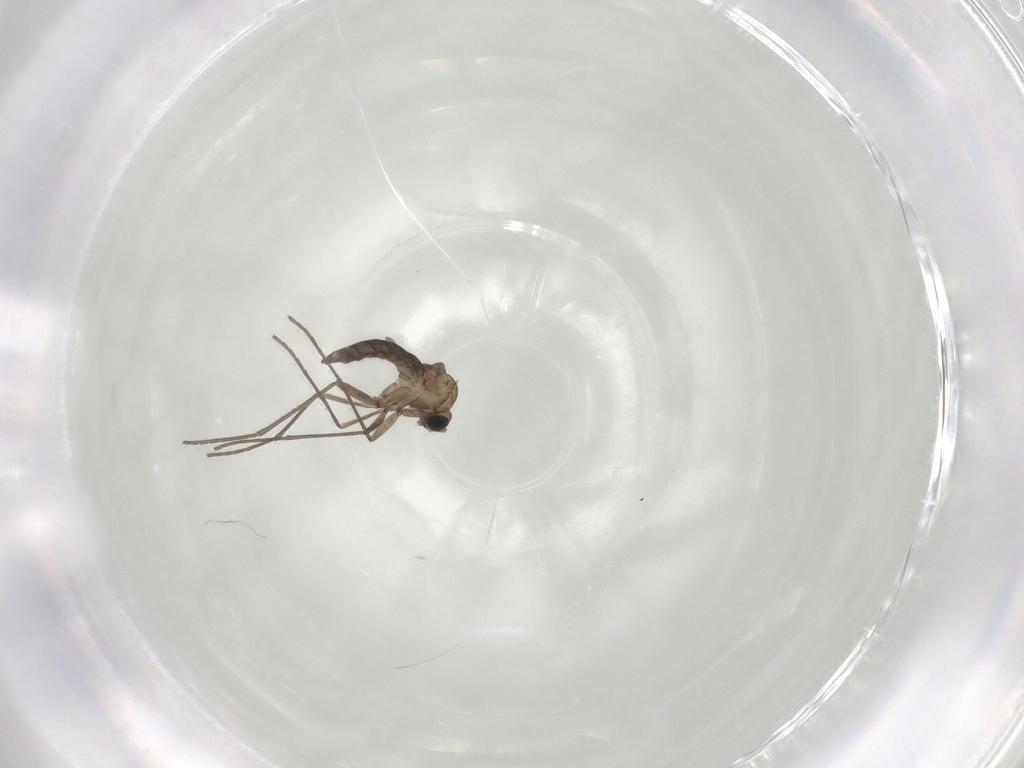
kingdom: Animalia
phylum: Arthropoda
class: Insecta
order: Diptera
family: Sciaridae
